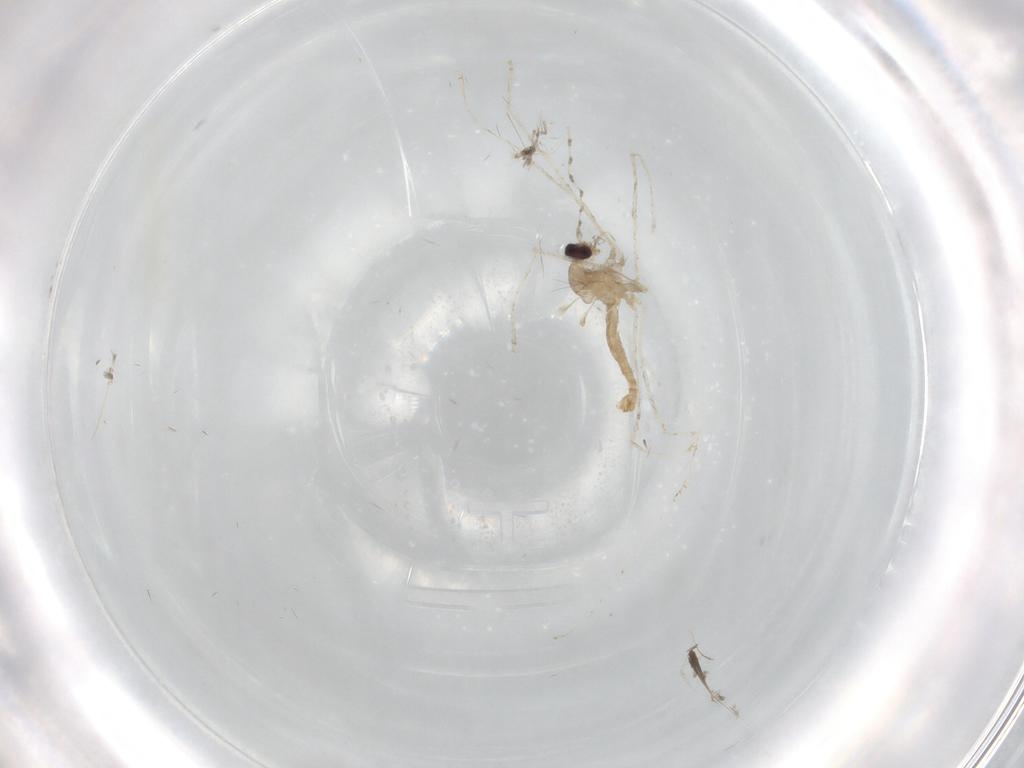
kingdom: Animalia
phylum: Arthropoda
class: Insecta
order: Diptera
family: Cecidomyiidae
